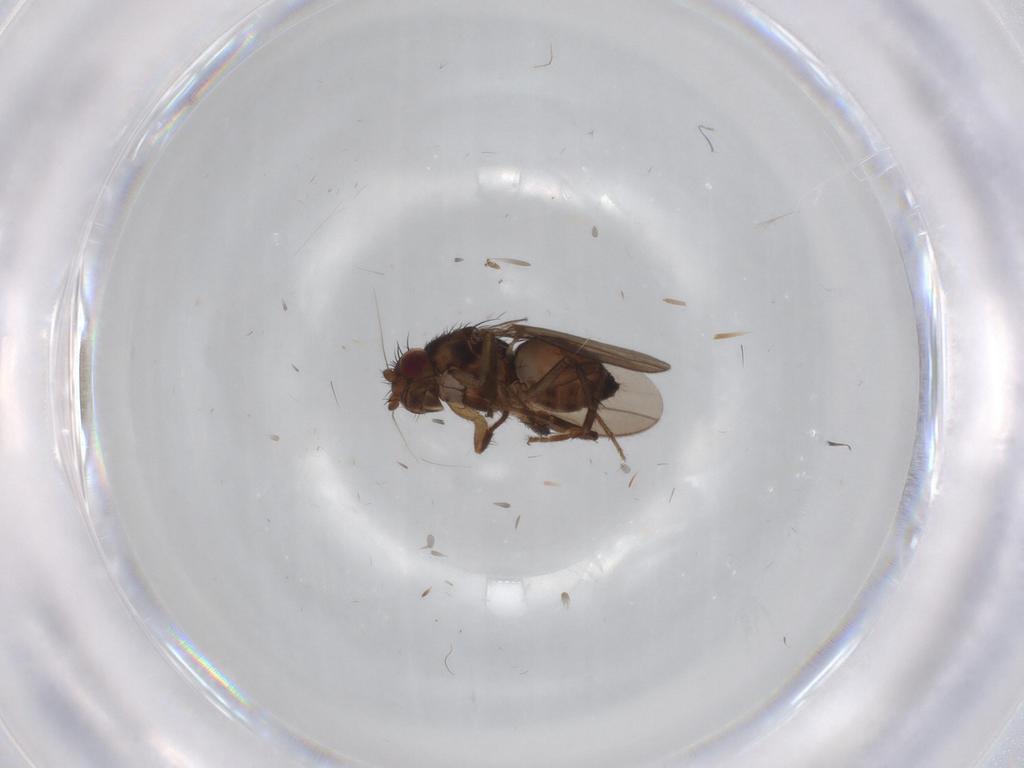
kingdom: Animalia
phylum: Arthropoda
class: Insecta
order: Diptera
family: Sphaeroceridae
